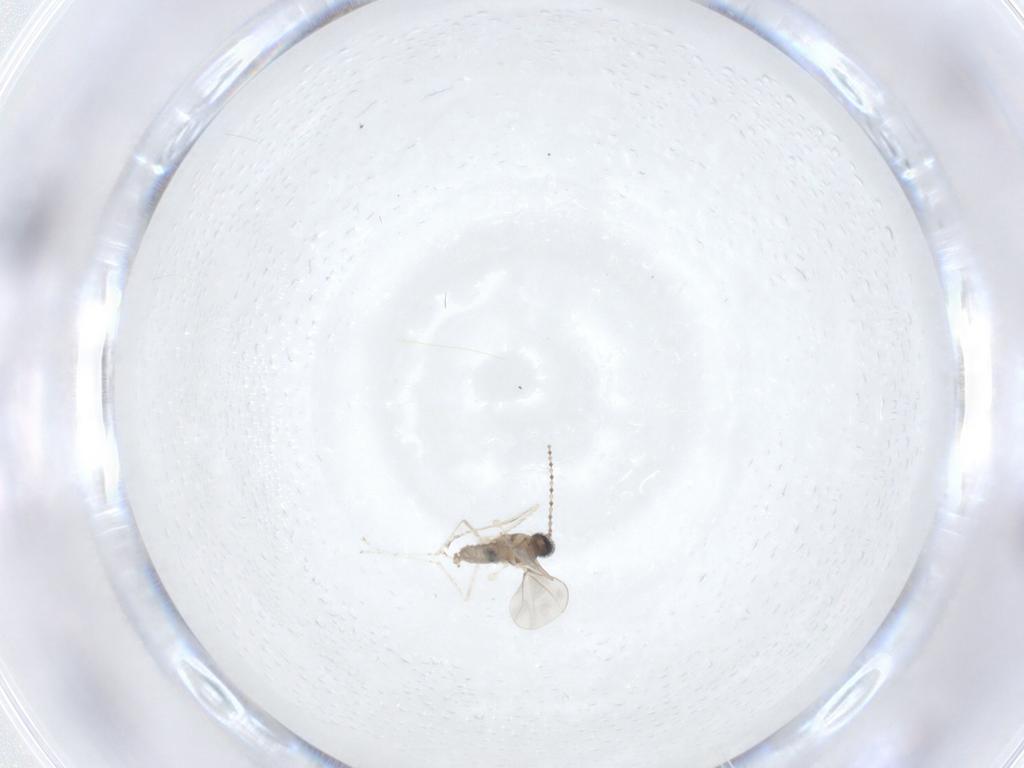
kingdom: Animalia
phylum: Arthropoda
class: Insecta
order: Diptera
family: Cecidomyiidae
